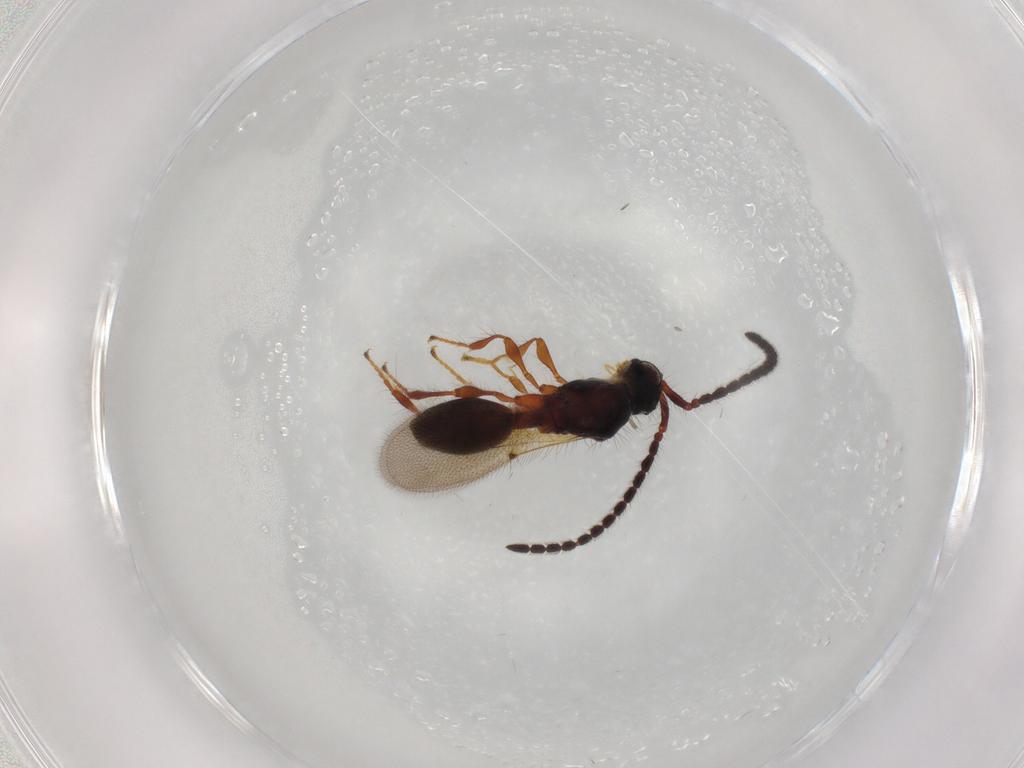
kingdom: Animalia
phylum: Arthropoda
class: Insecta
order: Hymenoptera
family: Diapriidae
